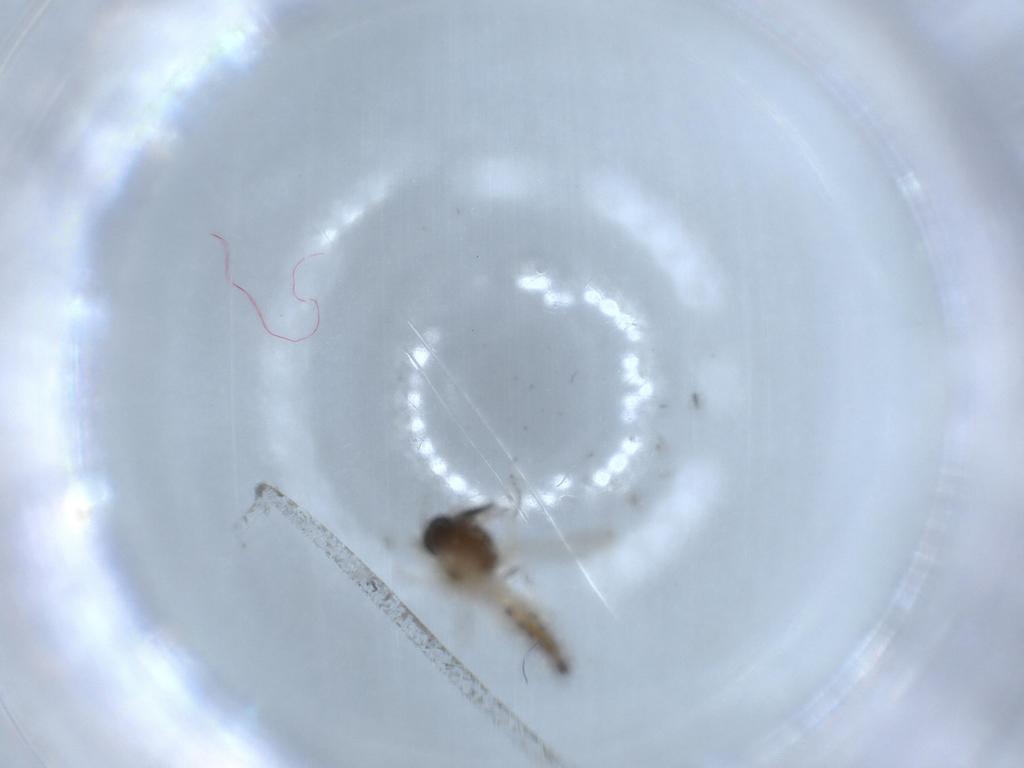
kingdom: Animalia
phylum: Arthropoda
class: Insecta
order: Diptera
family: Ceratopogonidae
